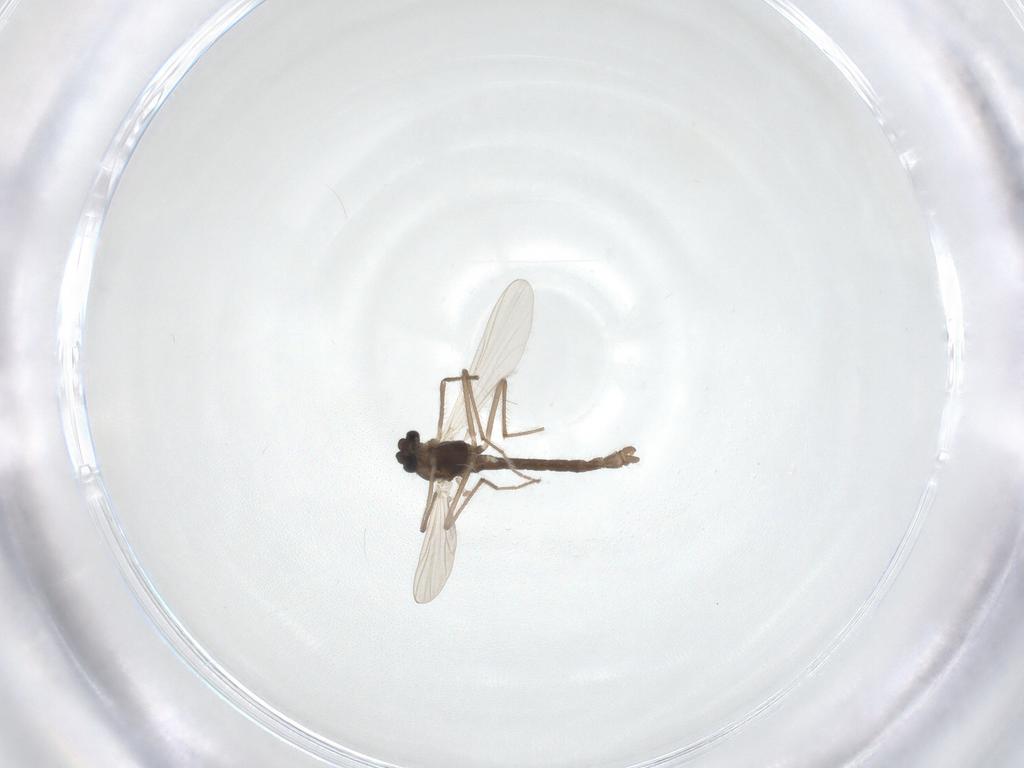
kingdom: Animalia
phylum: Arthropoda
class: Insecta
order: Diptera
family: Chironomidae
